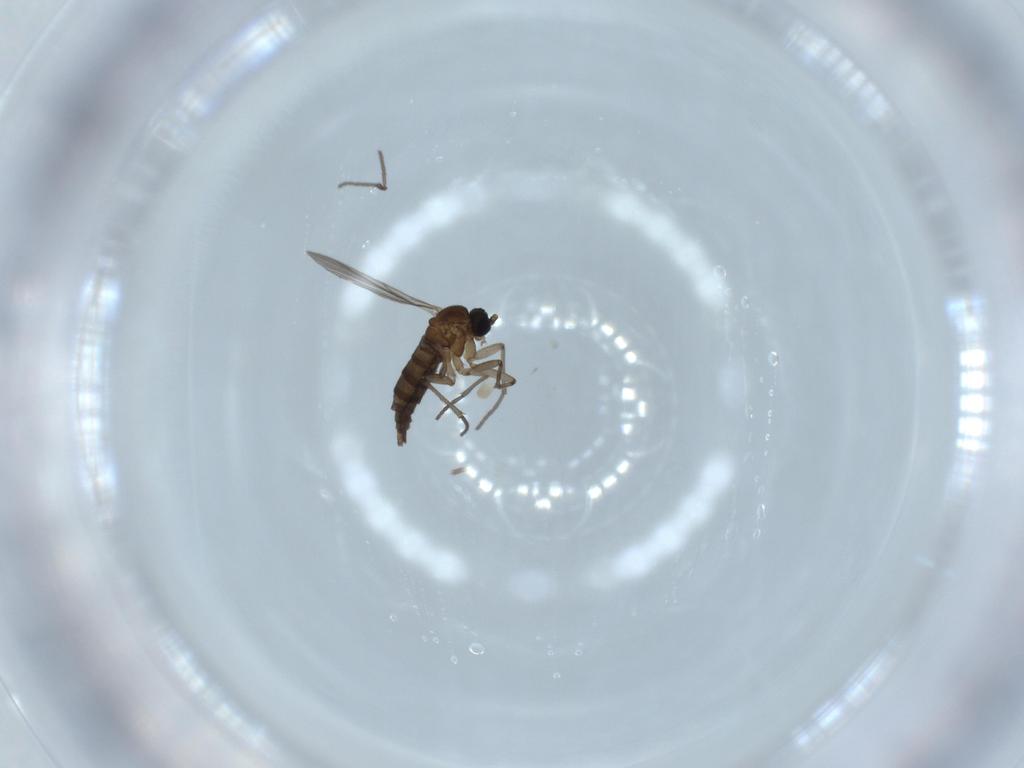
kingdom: Animalia
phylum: Arthropoda
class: Insecta
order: Diptera
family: Sciaridae
